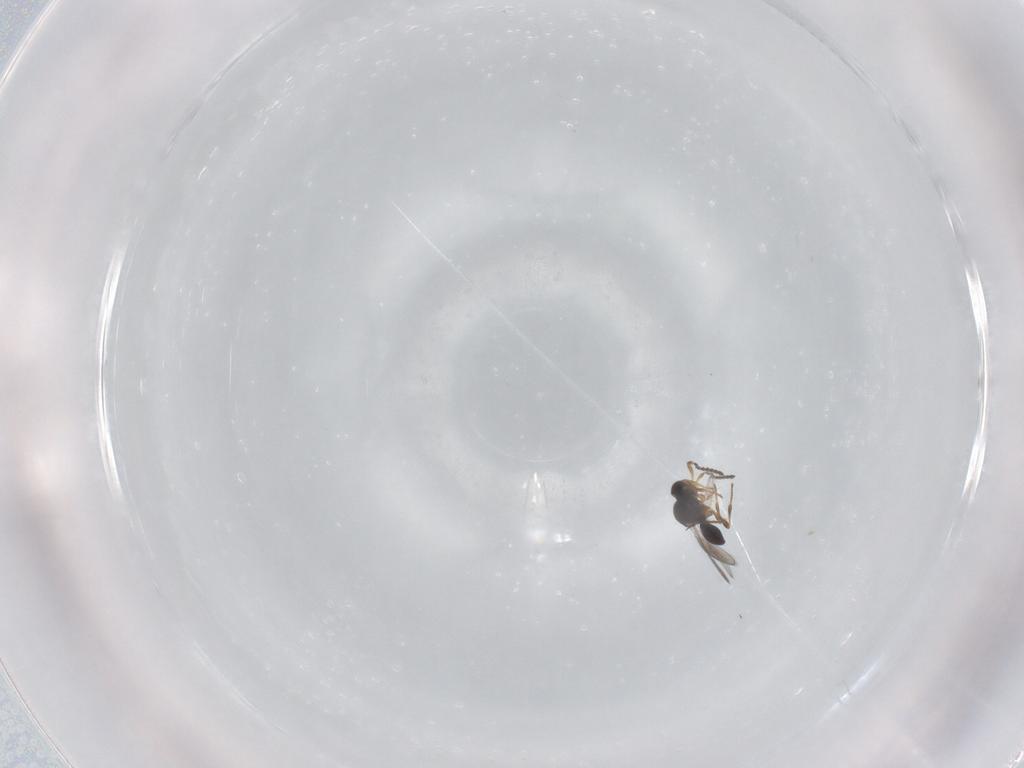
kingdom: Animalia
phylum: Arthropoda
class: Insecta
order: Hymenoptera
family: Platygastridae
